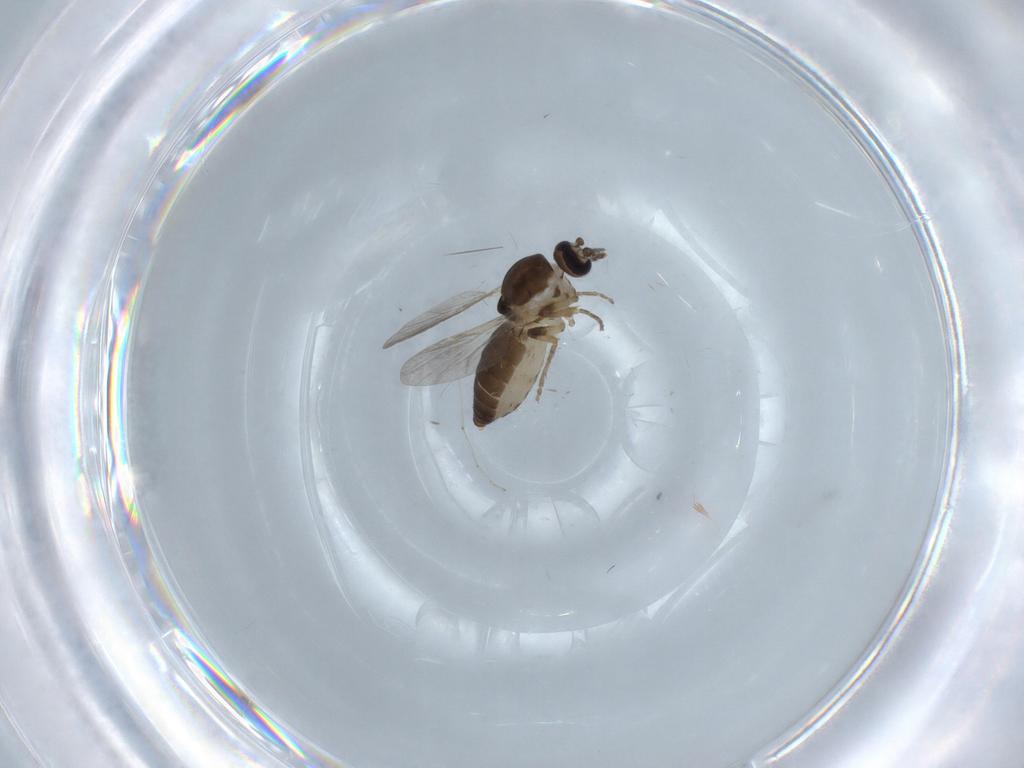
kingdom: Animalia
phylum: Arthropoda
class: Insecta
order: Diptera
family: Ceratopogonidae
